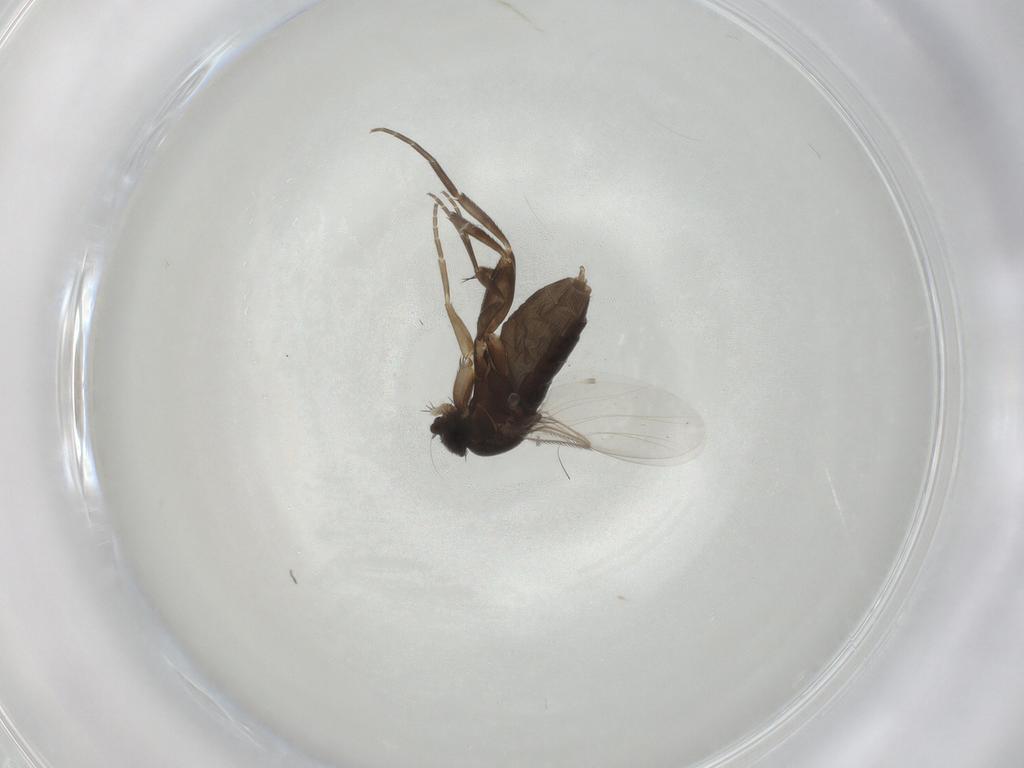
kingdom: Animalia
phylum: Arthropoda
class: Insecta
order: Diptera
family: Phoridae
